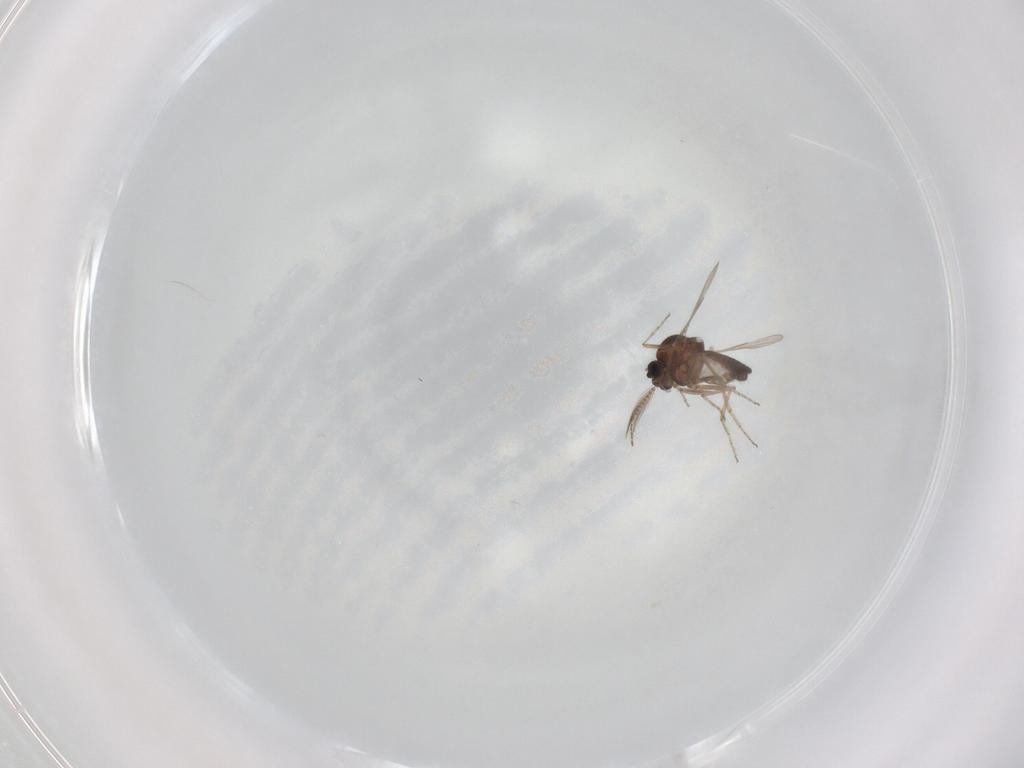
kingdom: Animalia
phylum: Arthropoda
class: Insecta
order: Diptera
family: Ceratopogonidae
